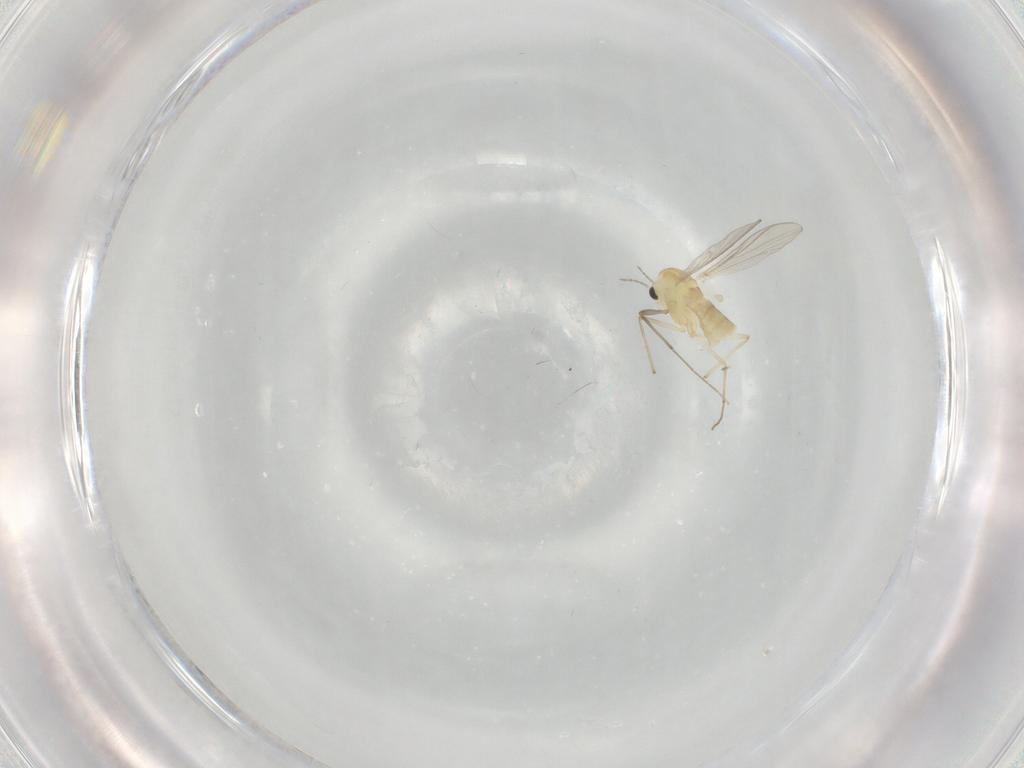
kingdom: Animalia
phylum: Arthropoda
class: Insecta
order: Diptera
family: Chironomidae
